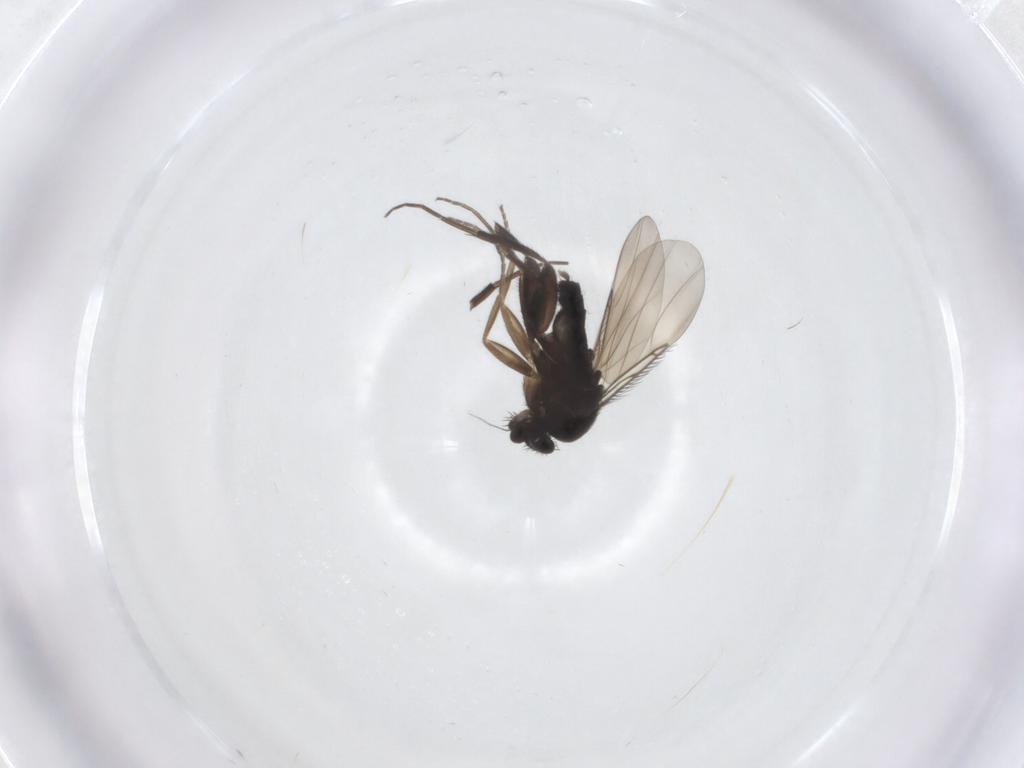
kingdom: Animalia
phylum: Arthropoda
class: Insecta
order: Diptera
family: Phoridae
